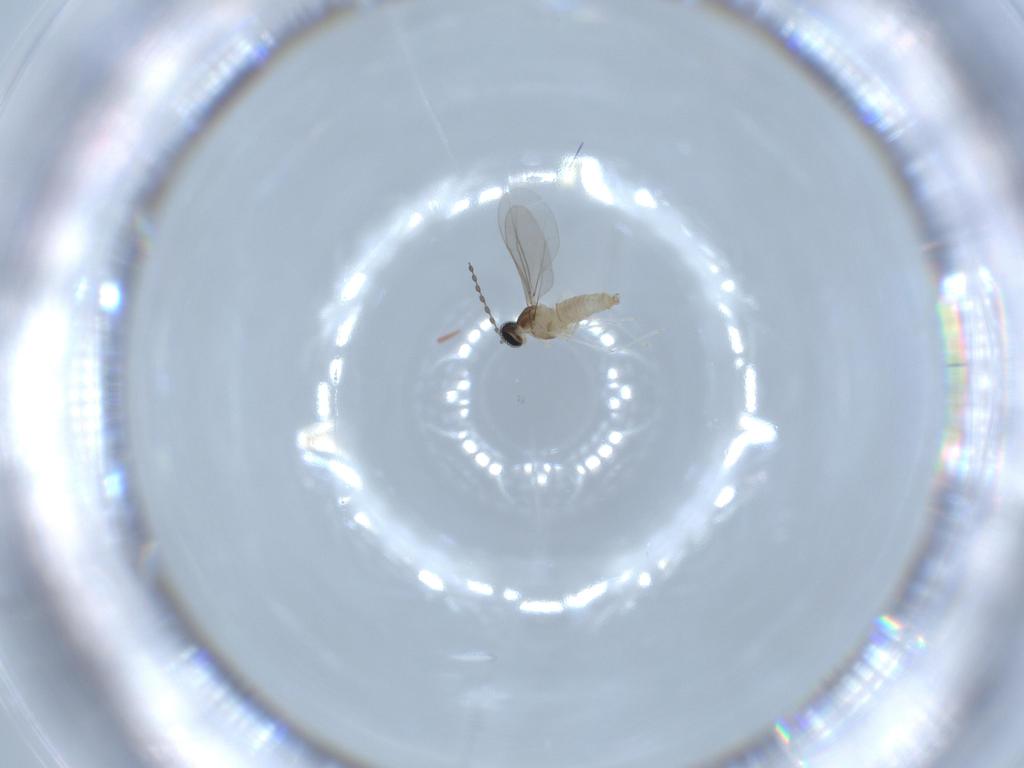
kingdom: Animalia
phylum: Arthropoda
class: Insecta
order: Diptera
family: Cecidomyiidae
